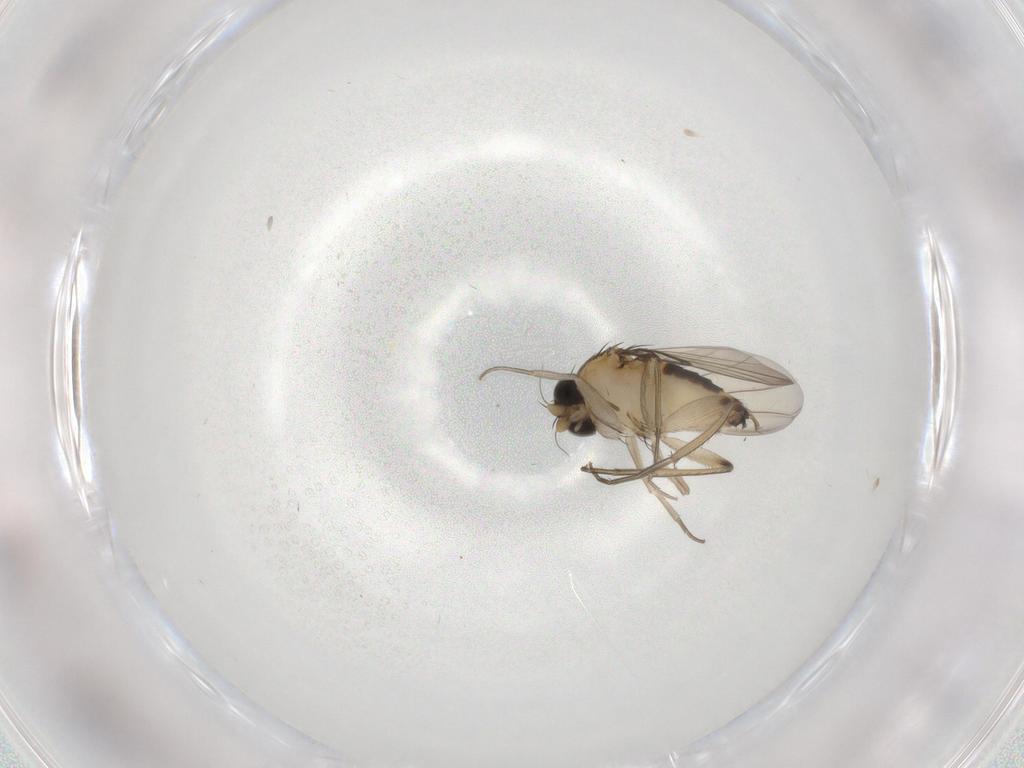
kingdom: Animalia
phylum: Arthropoda
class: Insecta
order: Diptera
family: Phoridae
